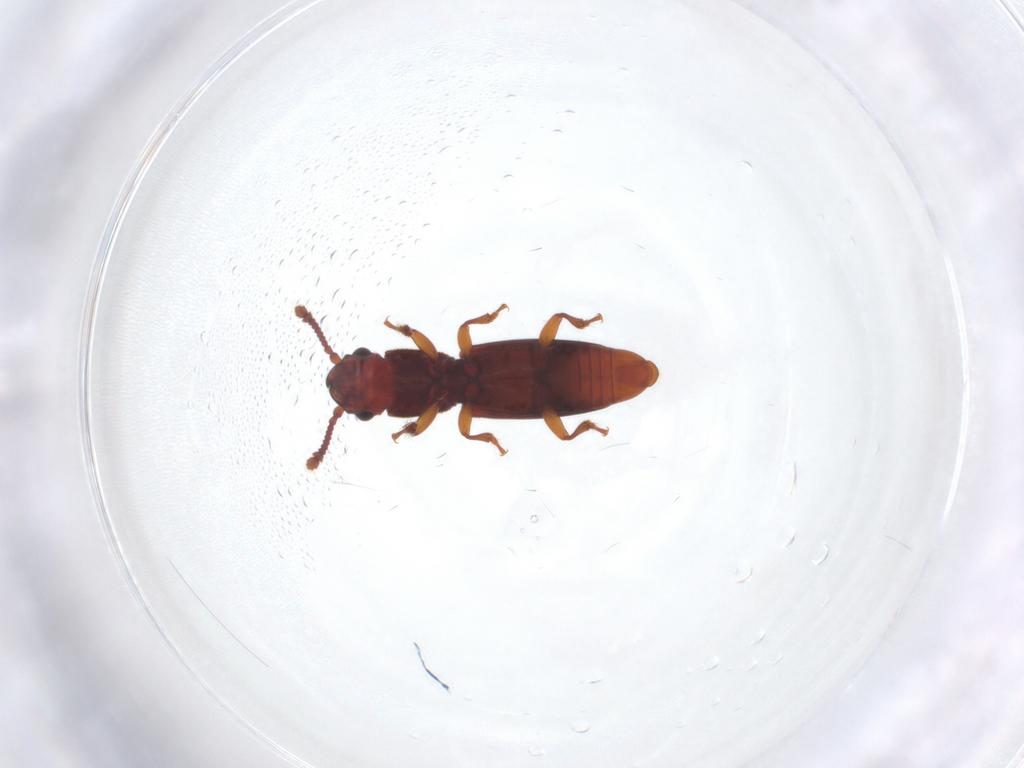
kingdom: Animalia
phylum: Arthropoda
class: Insecta
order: Coleoptera
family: Monotomidae
